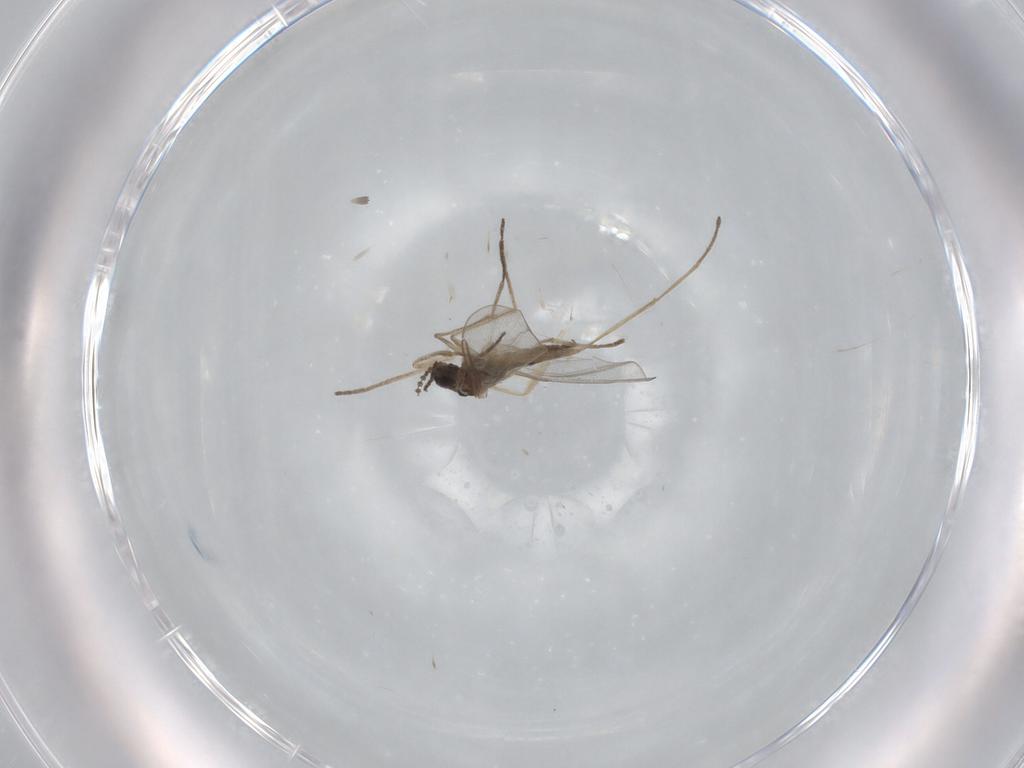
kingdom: Animalia
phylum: Arthropoda
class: Insecta
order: Diptera
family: Cecidomyiidae
